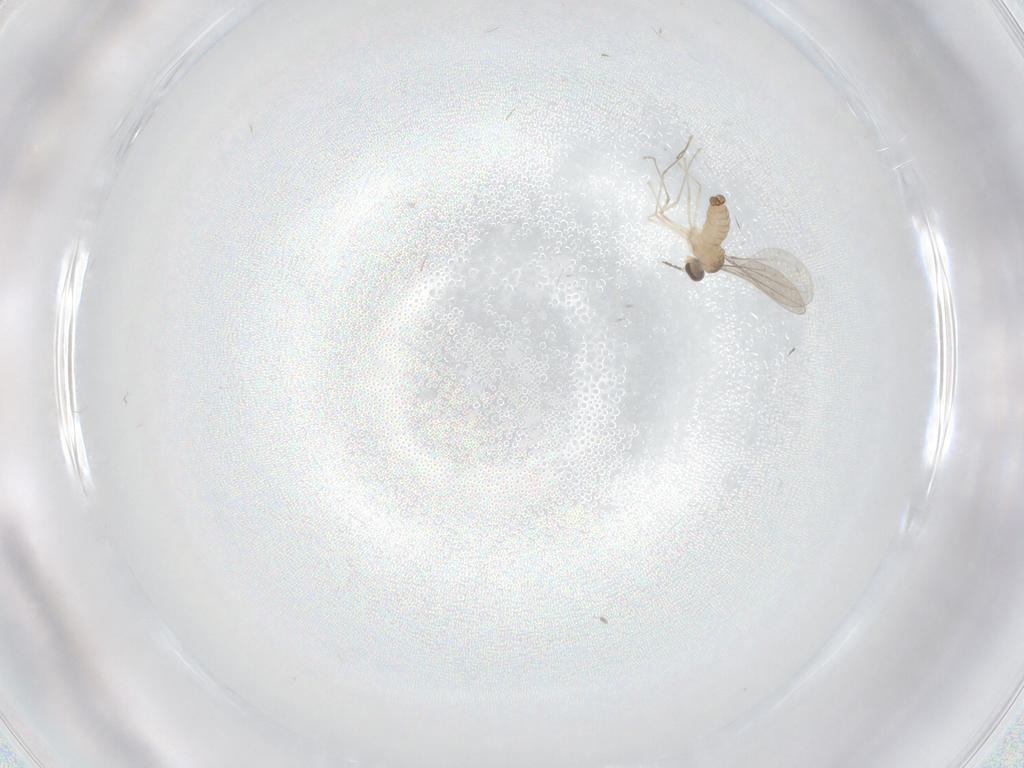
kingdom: Animalia
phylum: Arthropoda
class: Insecta
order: Diptera
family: Cecidomyiidae
